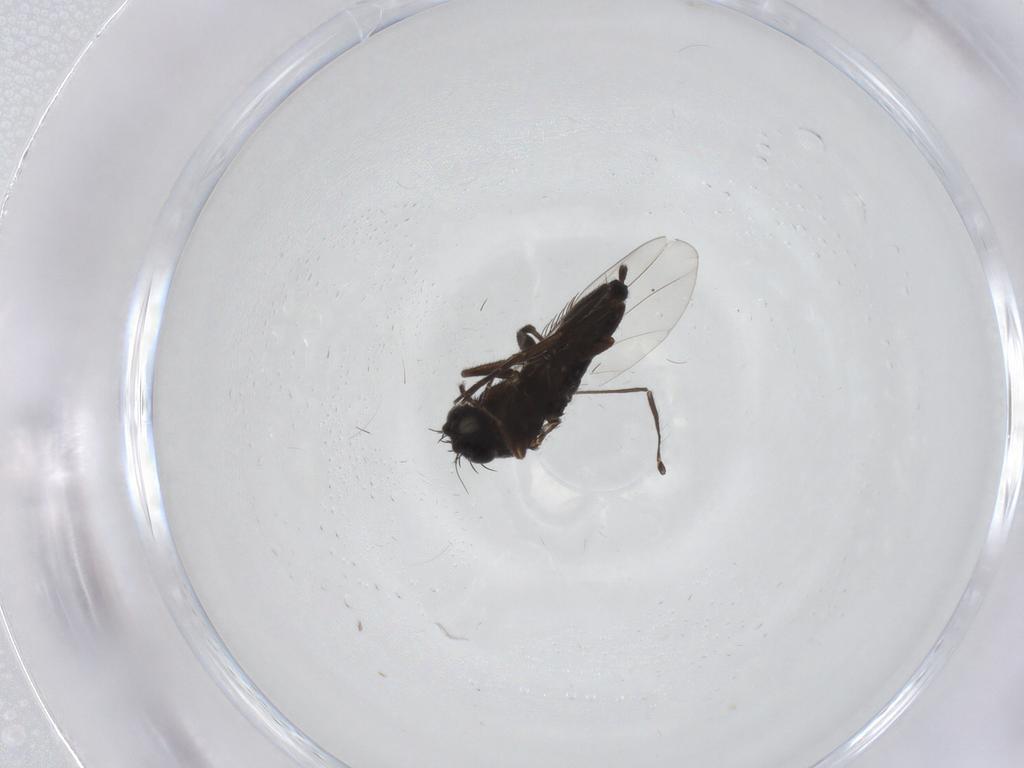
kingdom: Animalia
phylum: Arthropoda
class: Insecta
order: Diptera
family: Phoridae
